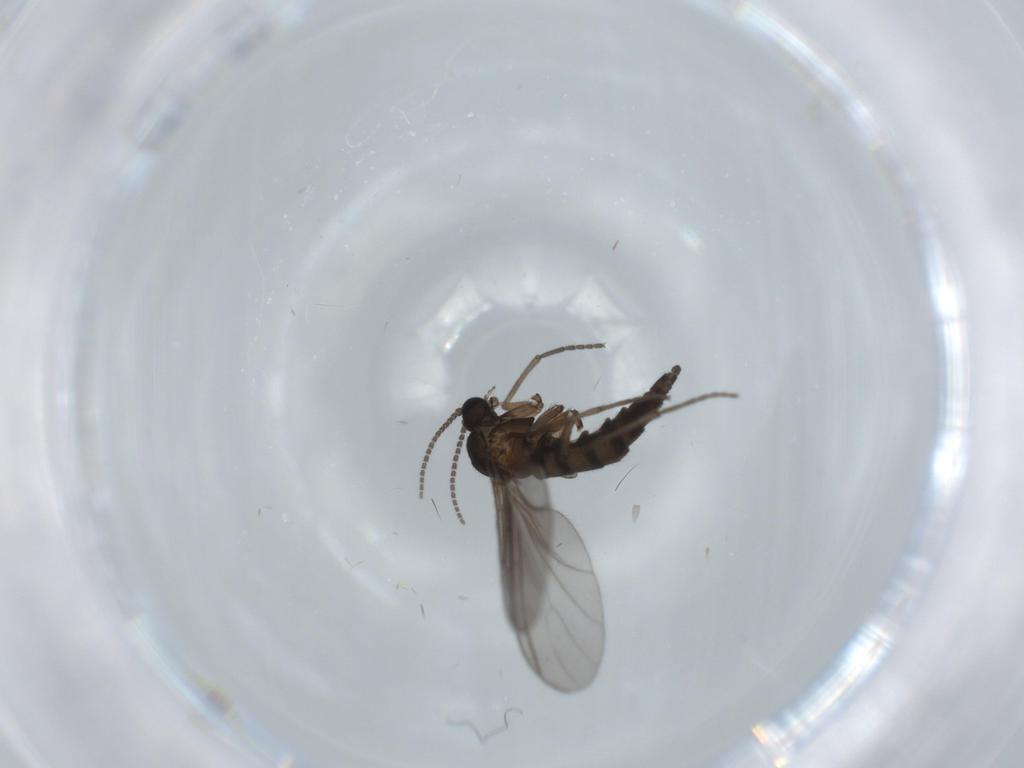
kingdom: Animalia
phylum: Arthropoda
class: Insecta
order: Diptera
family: Sciaridae
